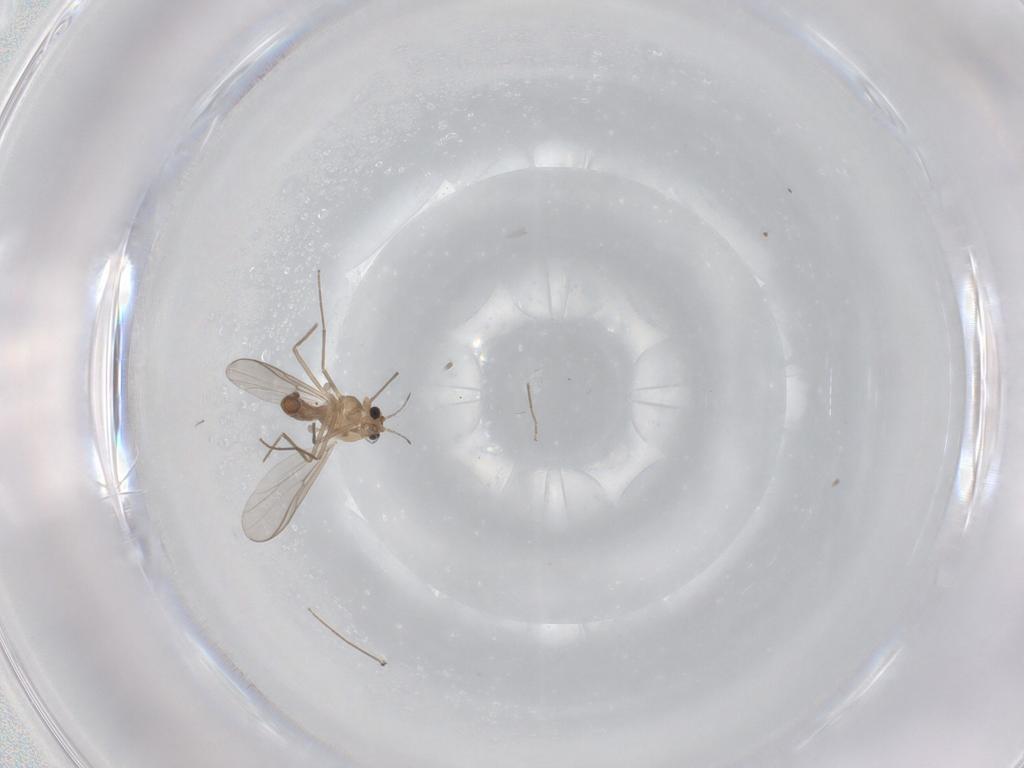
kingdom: Animalia
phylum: Arthropoda
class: Insecta
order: Diptera
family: Chironomidae
